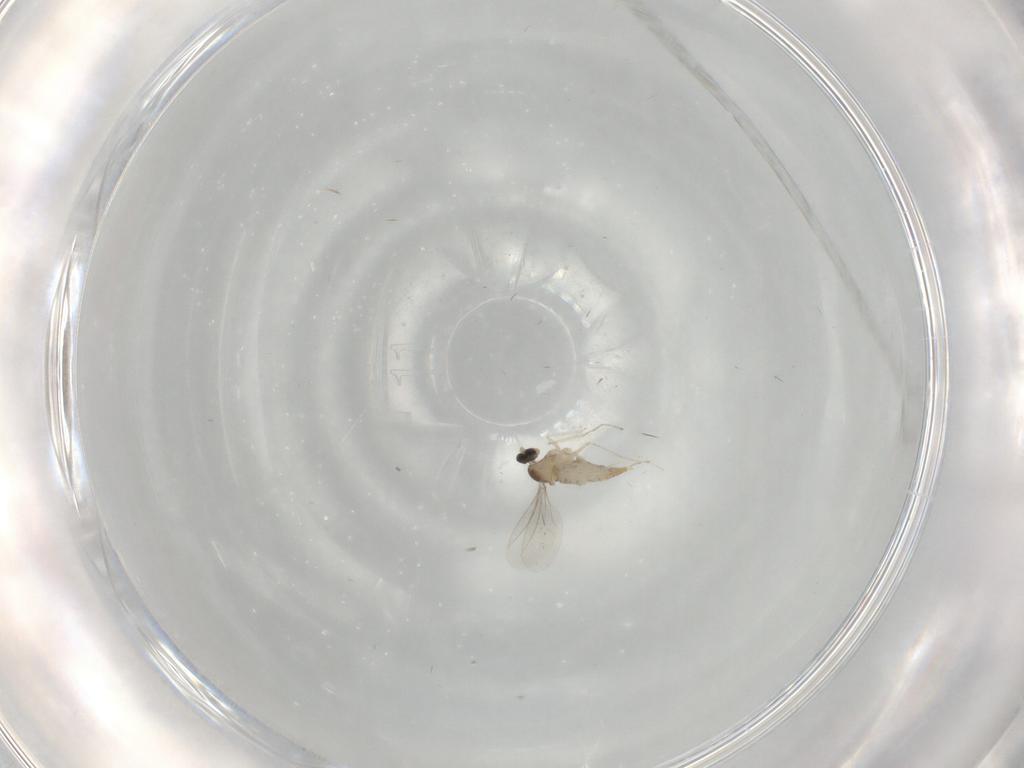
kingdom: Animalia
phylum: Arthropoda
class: Insecta
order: Diptera
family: Cecidomyiidae
